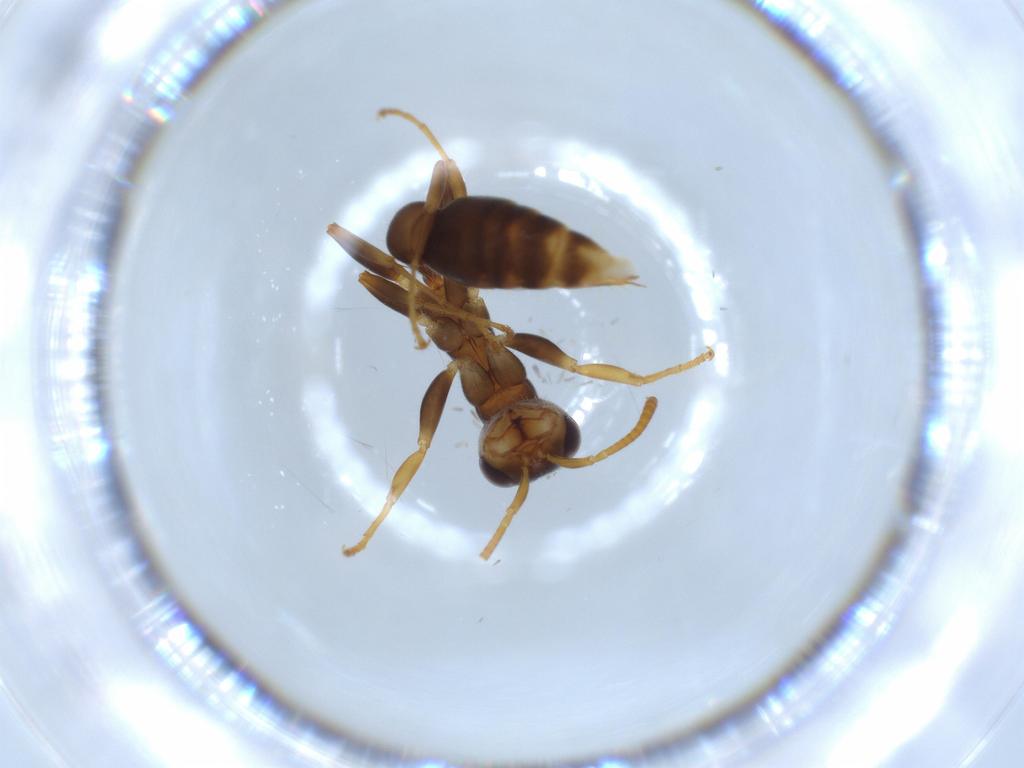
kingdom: Animalia
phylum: Arthropoda
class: Insecta
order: Hymenoptera
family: Formicidae
